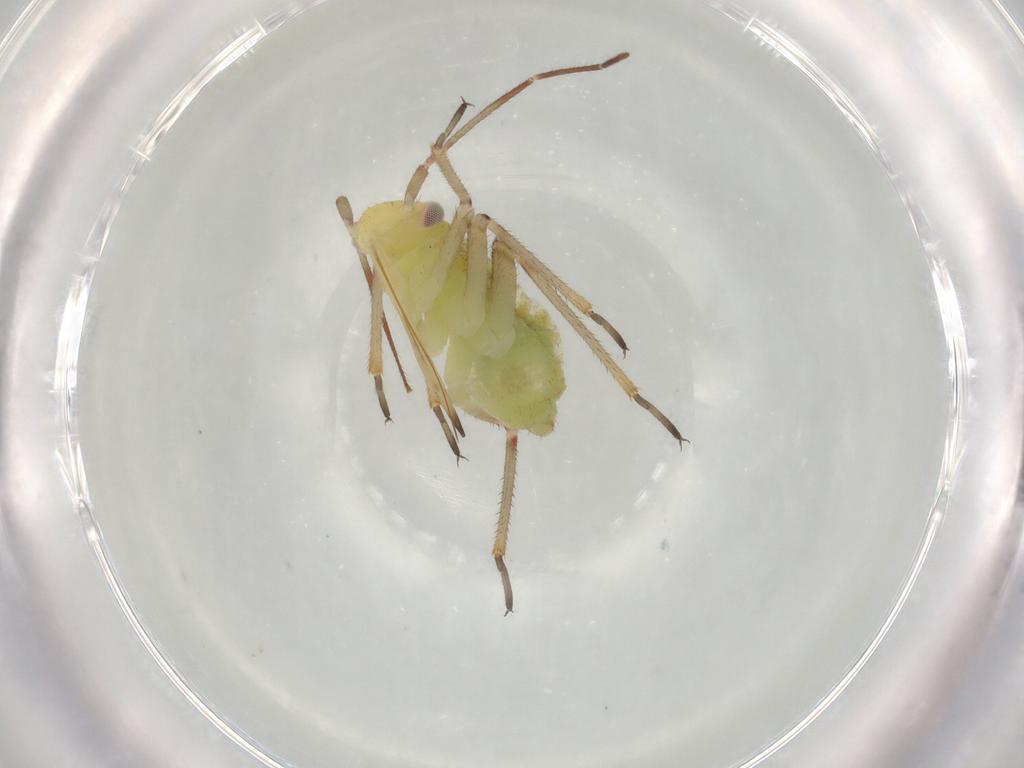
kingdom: Animalia
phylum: Arthropoda
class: Insecta
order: Hemiptera
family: Miridae
